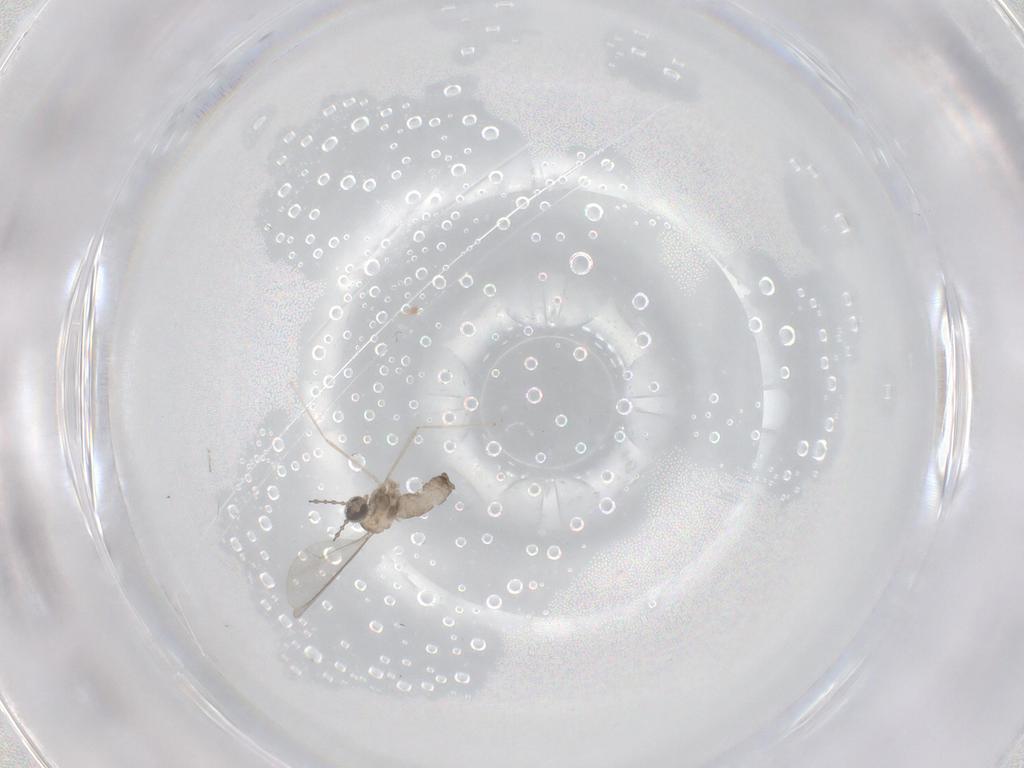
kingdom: Animalia
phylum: Arthropoda
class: Insecta
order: Diptera
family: Cecidomyiidae
